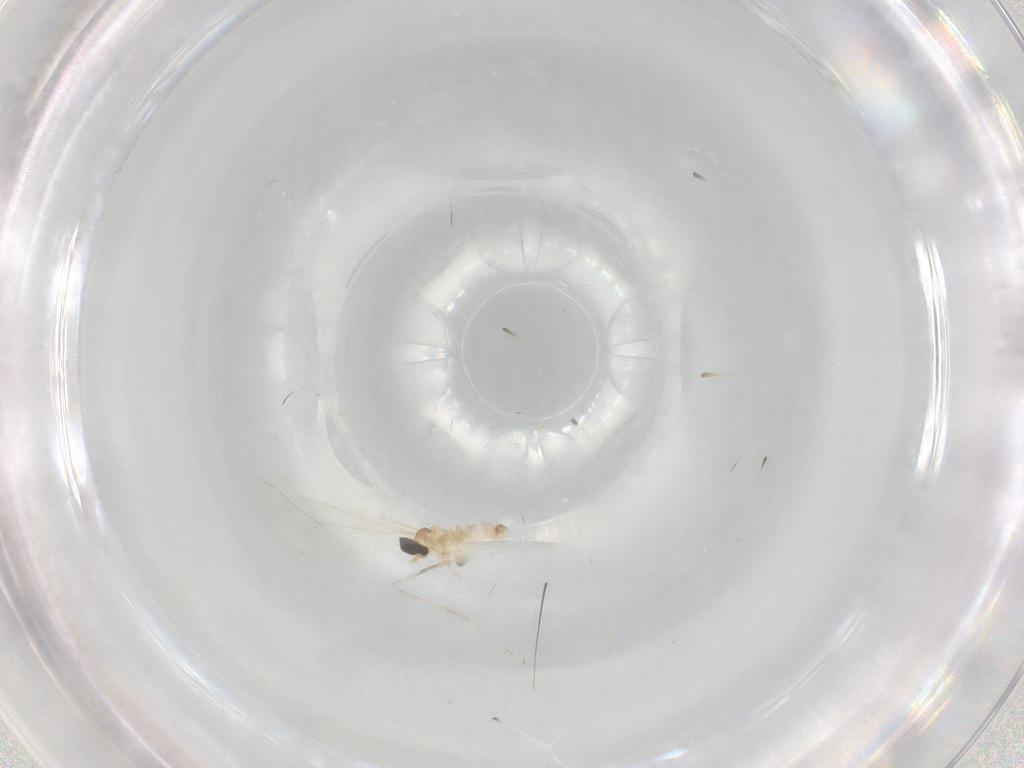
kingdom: Animalia
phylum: Arthropoda
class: Insecta
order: Diptera
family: Cecidomyiidae
